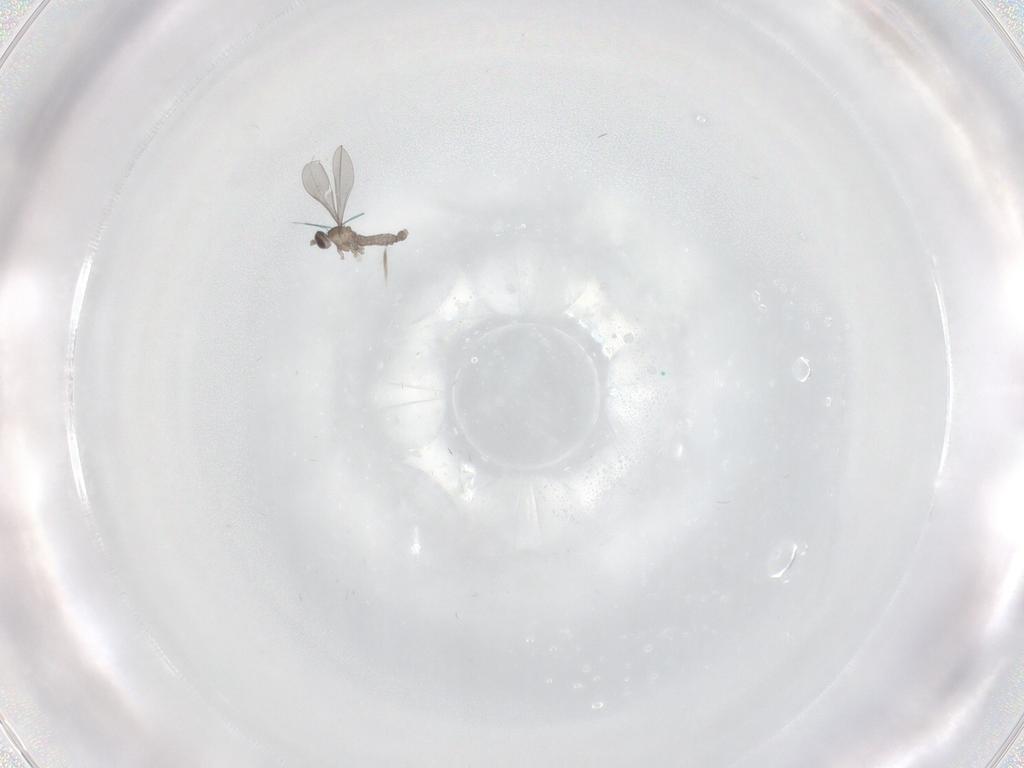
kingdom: Animalia
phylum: Arthropoda
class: Insecta
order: Diptera
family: Cecidomyiidae
